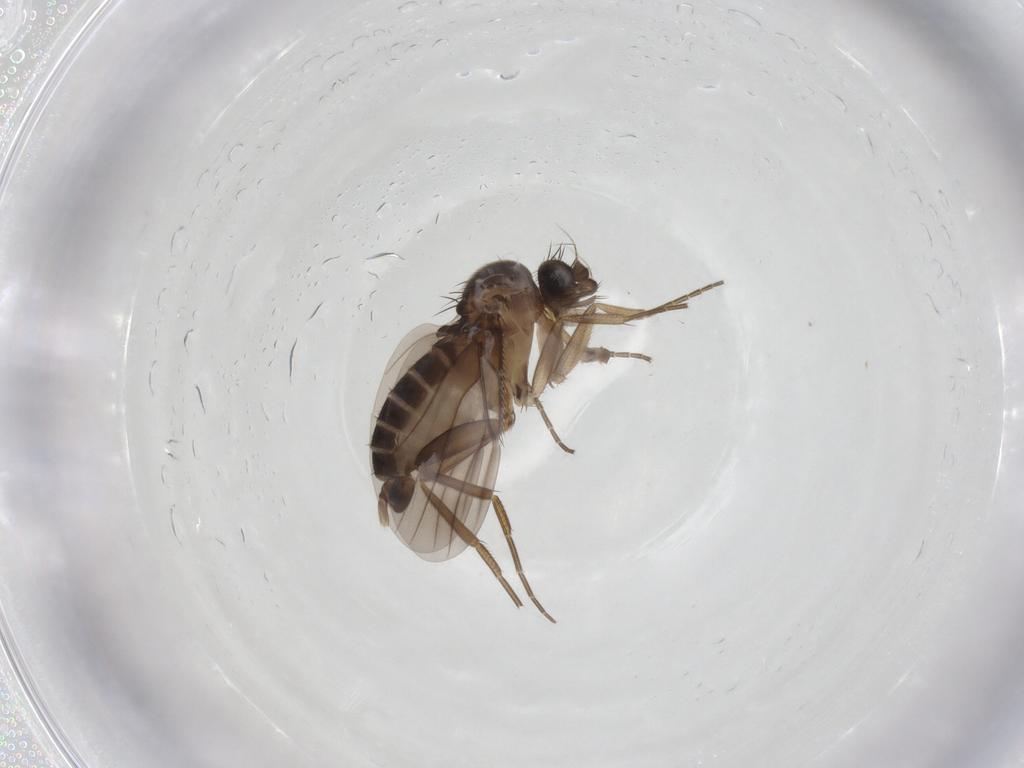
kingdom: Animalia
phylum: Arthropoda
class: Insecta
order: Diptera
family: Phoridae
